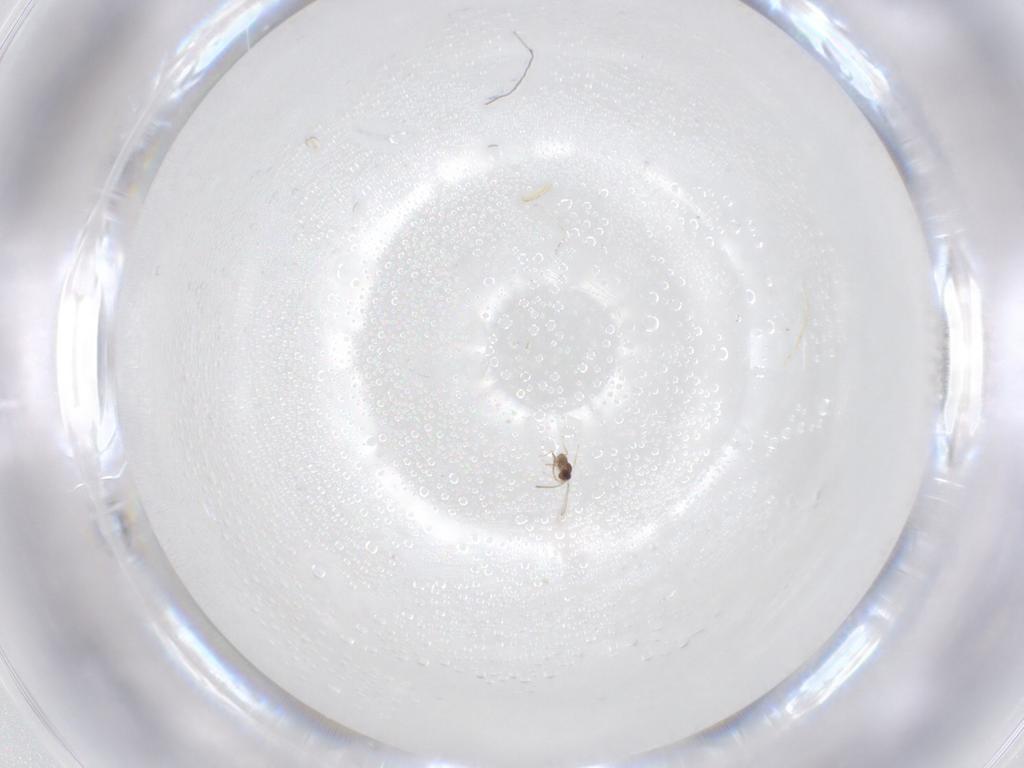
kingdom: Animalia
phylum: Arthropoda
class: Insecta
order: Hymenoptera
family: Scelionidae
